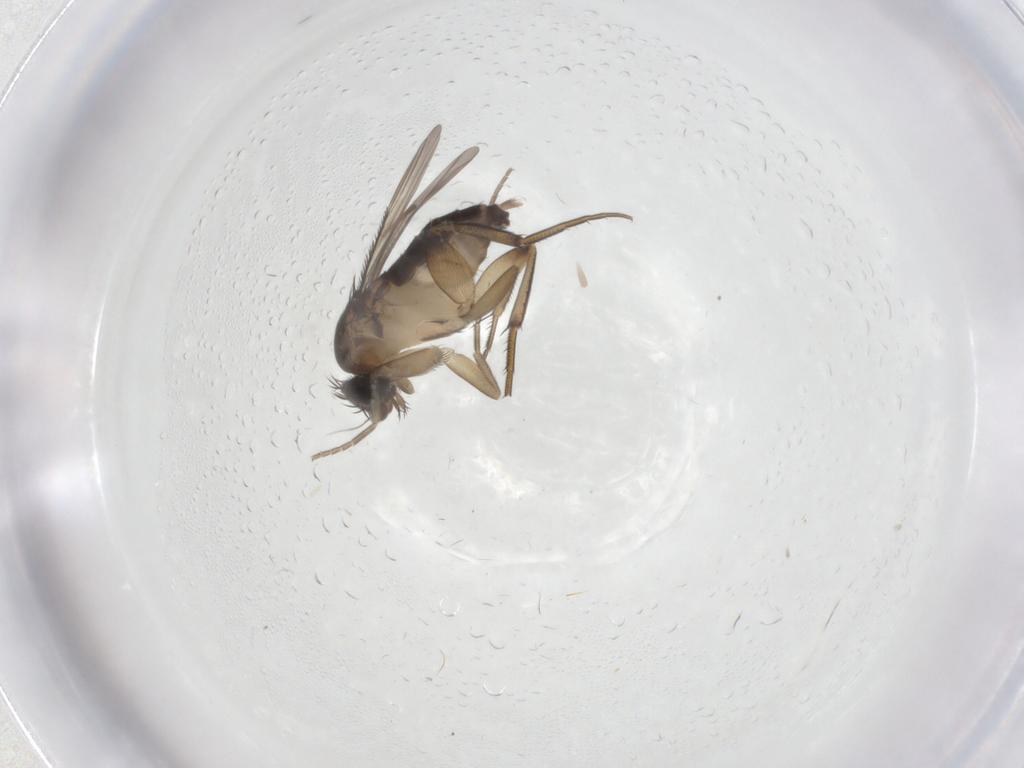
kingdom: Animalia
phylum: Arthropoda
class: Insecta
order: Diptera
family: Phoridae
